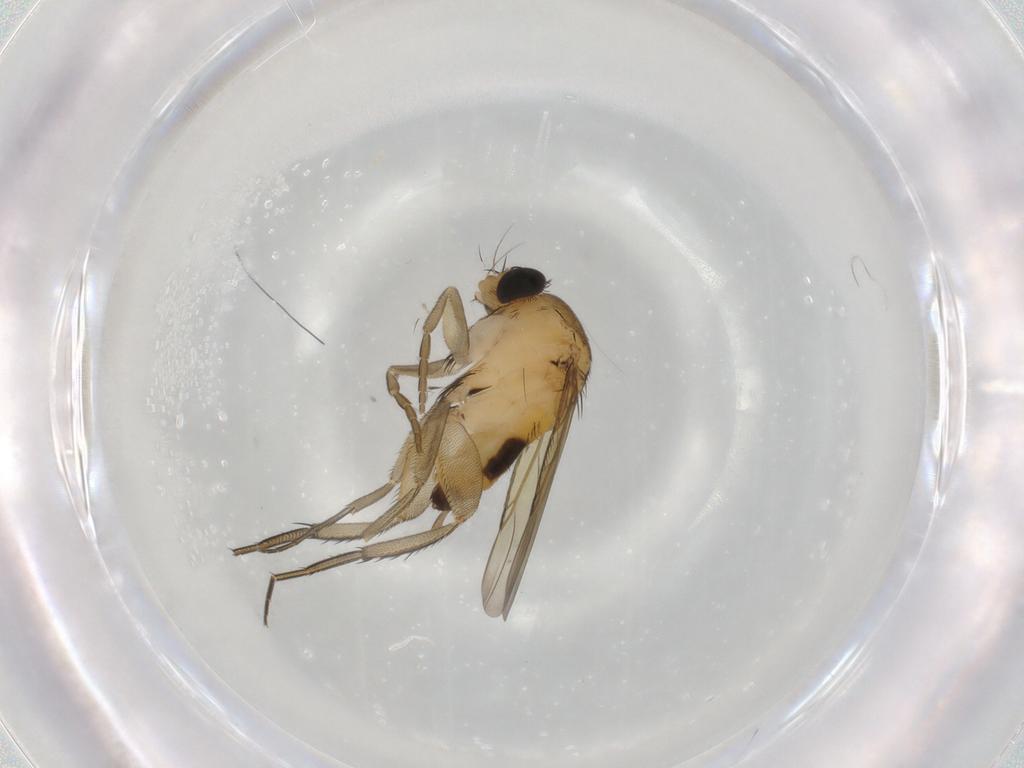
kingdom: Animalia
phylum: Arthropoda
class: Insecta
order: Diptera
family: Phoridae
